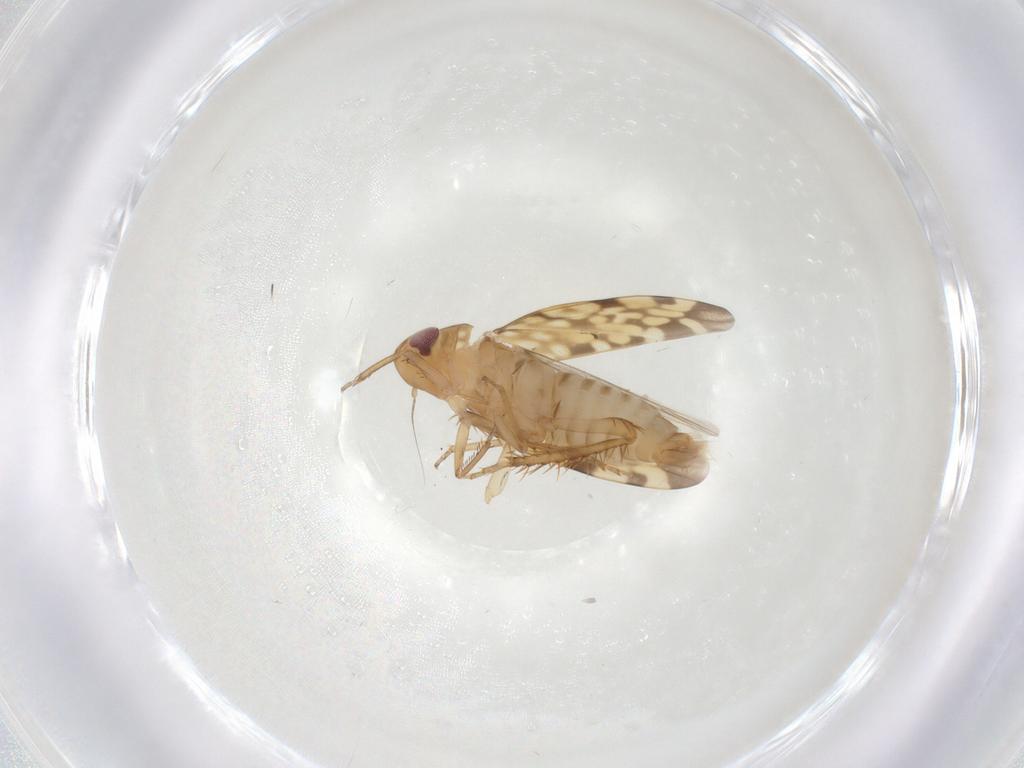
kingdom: Animalia
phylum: Arthropoda
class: Insecta
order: Hemiptera
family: Cicadellidae
